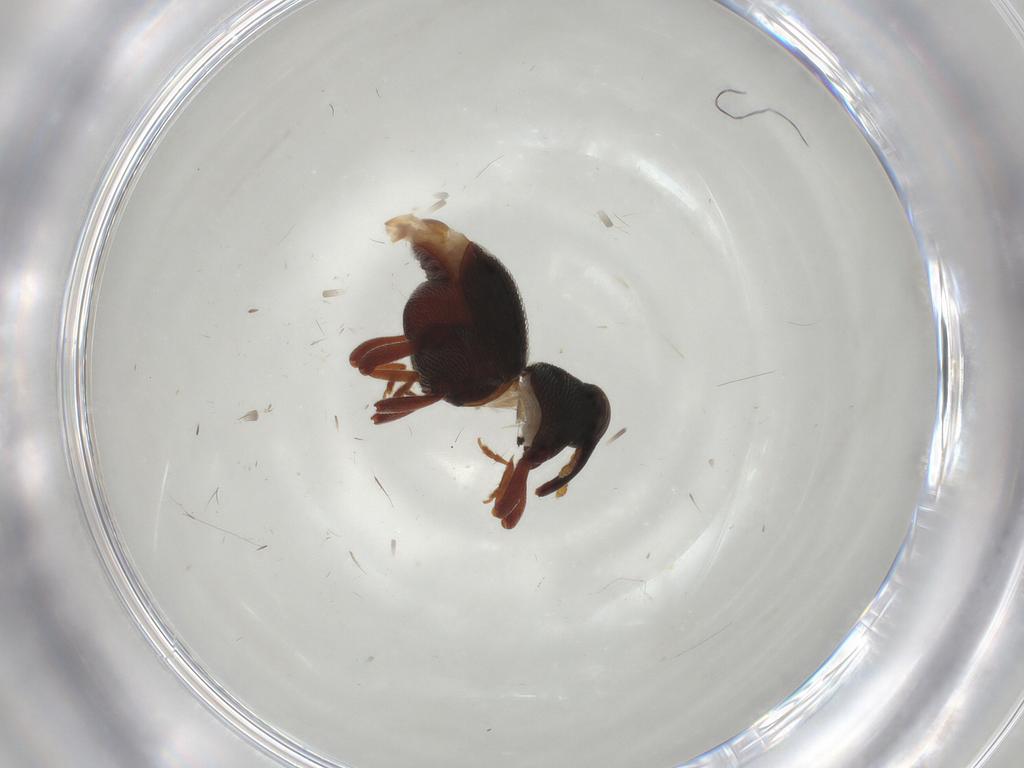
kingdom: Animalia
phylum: Arthropoda
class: Insecta
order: Coleoptera
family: Curculionidae
